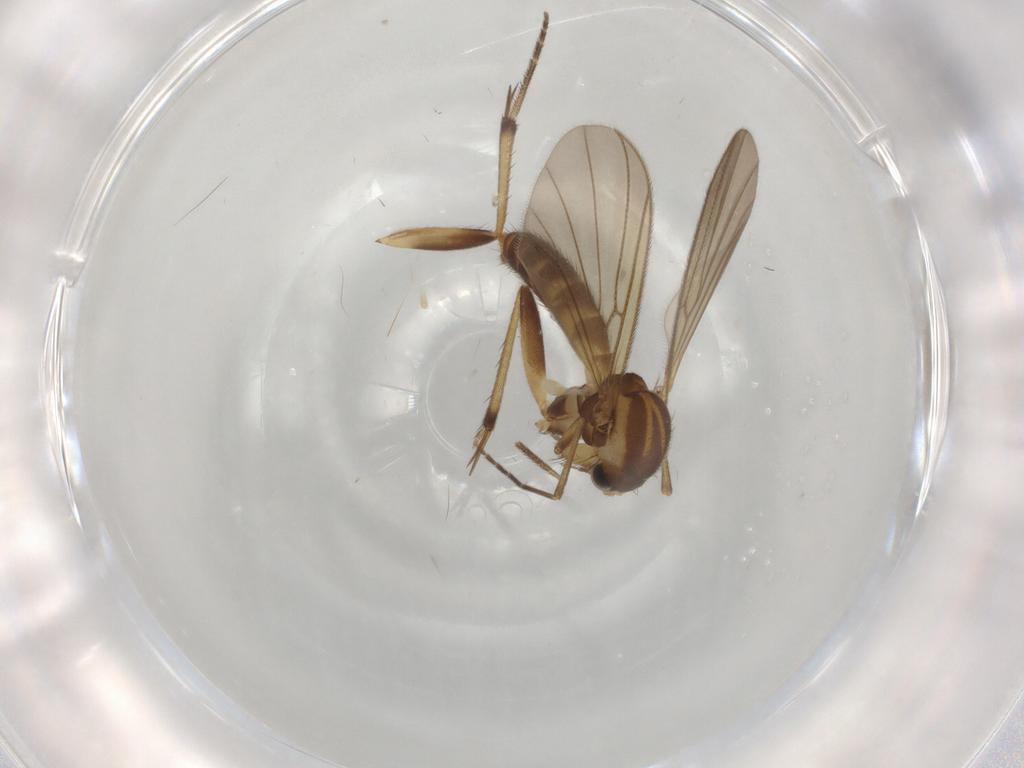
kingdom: Animalia
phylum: Arthropoda
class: Insecta
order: Diptera
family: Mycetophilidae
